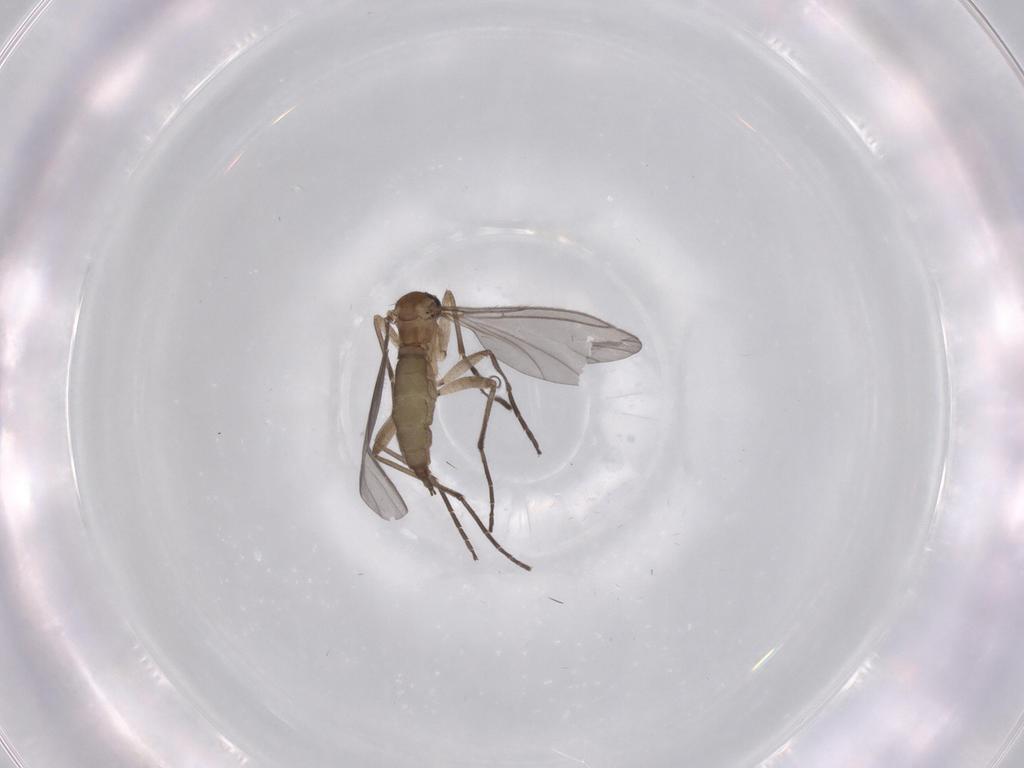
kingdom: Animalia
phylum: Arthropoda
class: Insecta
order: Diptera
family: Sciaridae
